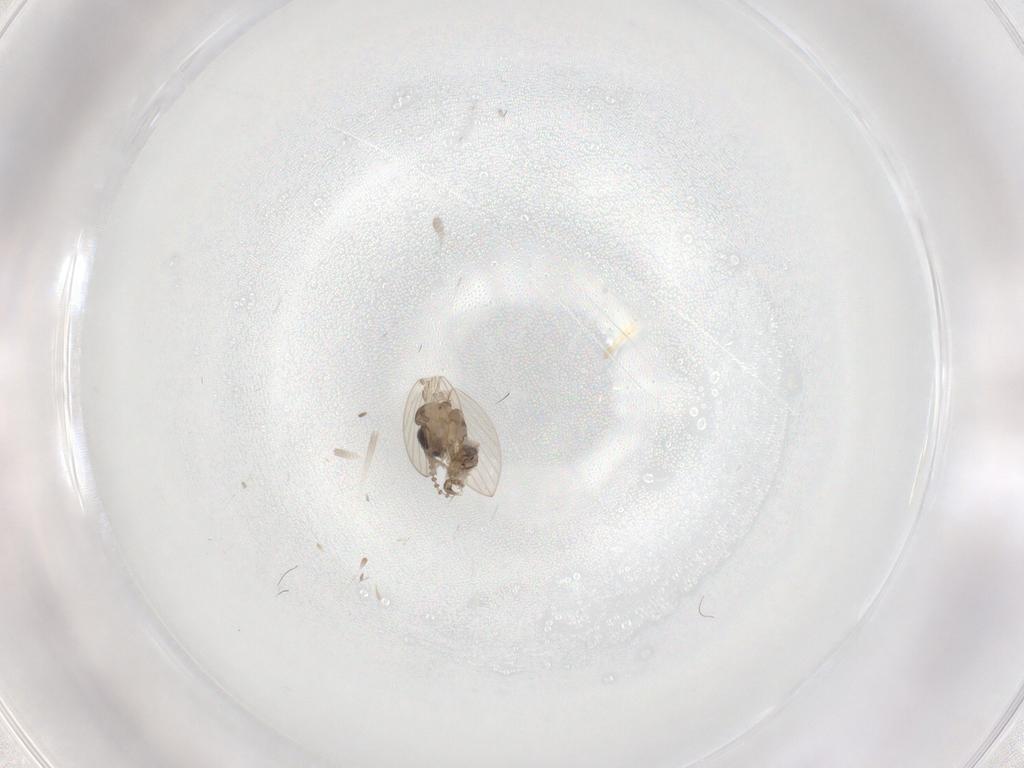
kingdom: Animalia
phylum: Arthropoda
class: Insecta
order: Diptera
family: Psychodidae
